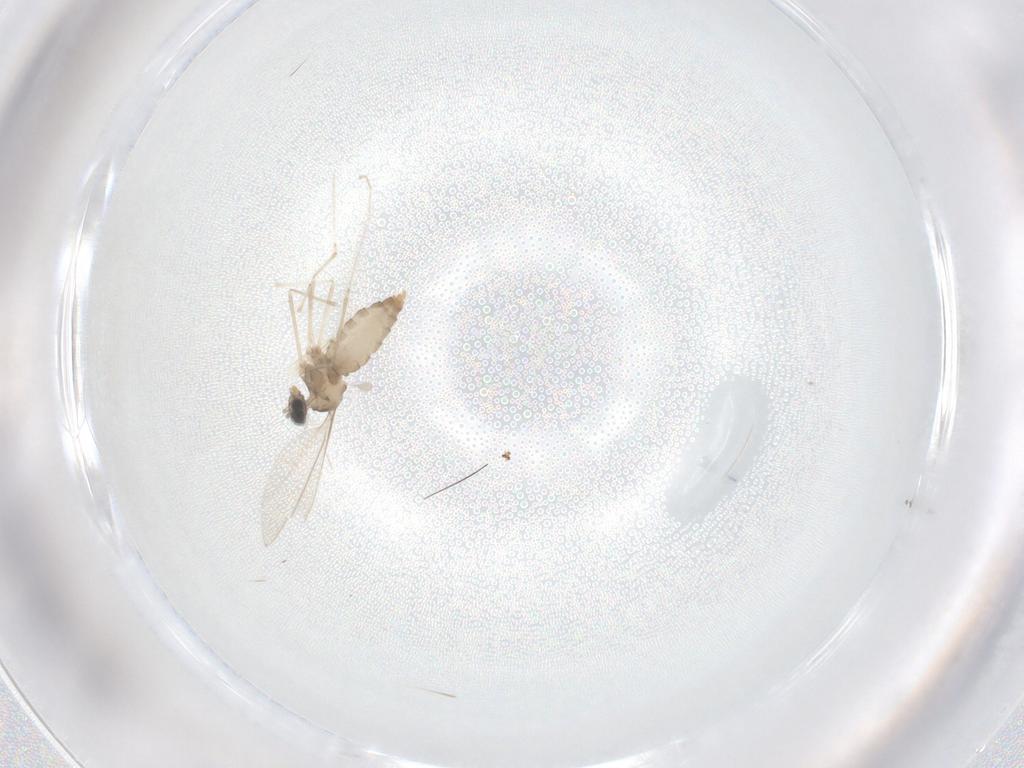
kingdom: Animalia
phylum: Arthropoda
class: Insecta
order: Diptera
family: Cecidomyiidae
